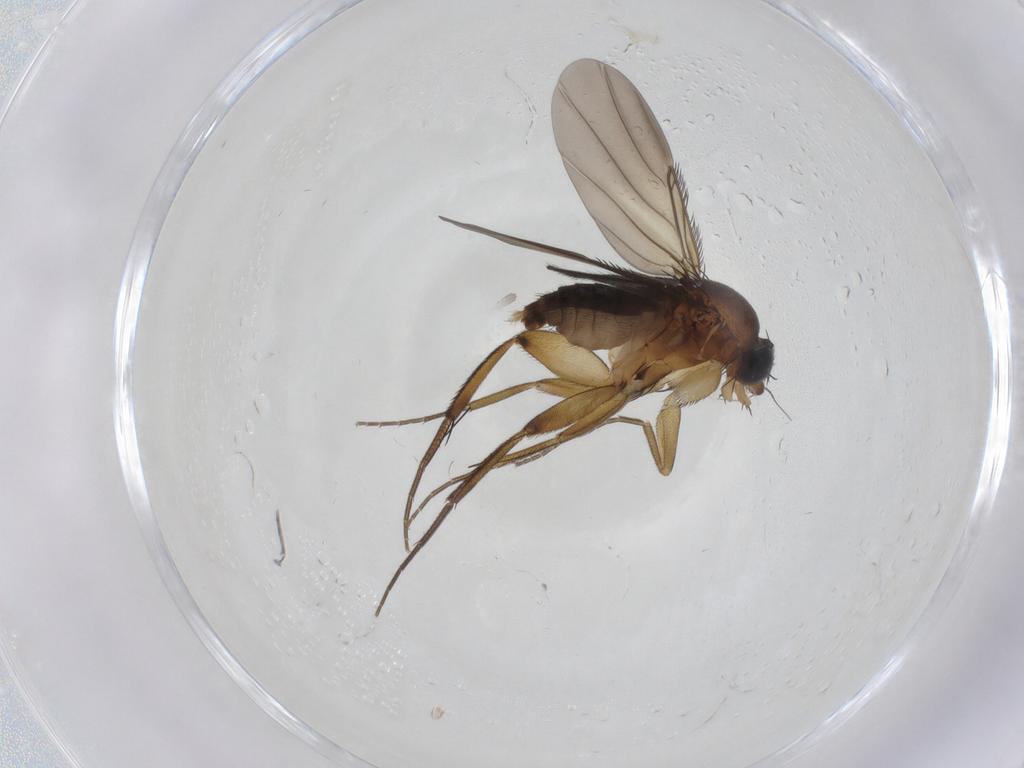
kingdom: Animalia
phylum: Arthropoda
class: Insecta
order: Diptera
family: Phoridae
